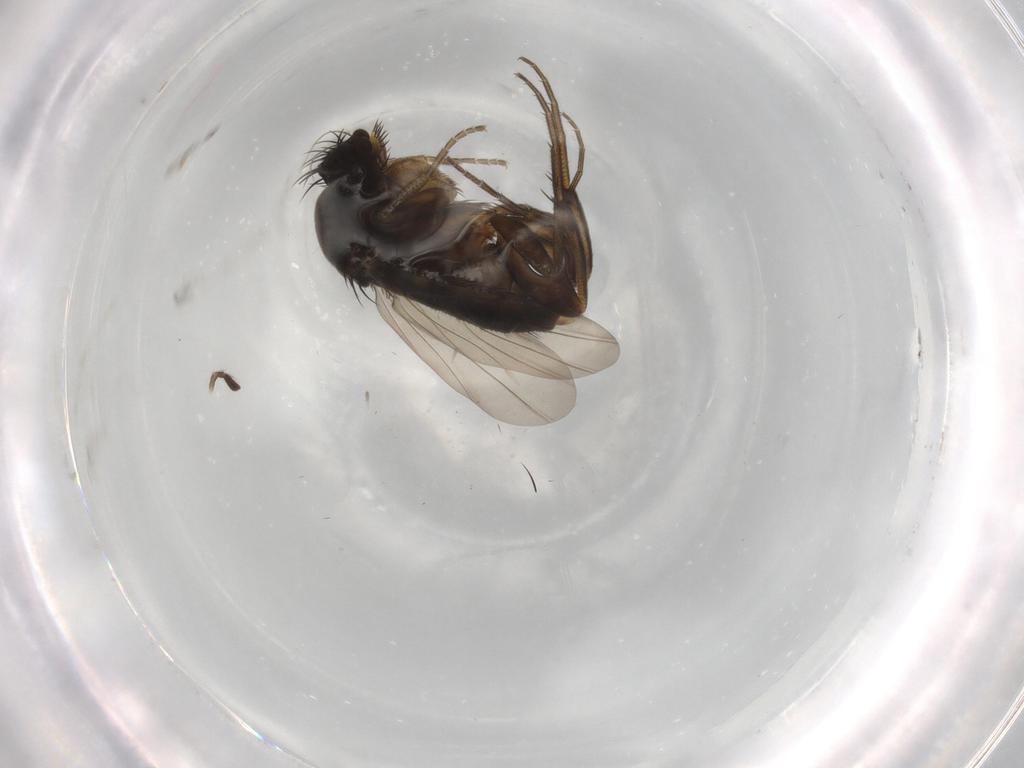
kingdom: Animalia
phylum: Arthropoda
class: Insecta
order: Diptera
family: Phoridae
